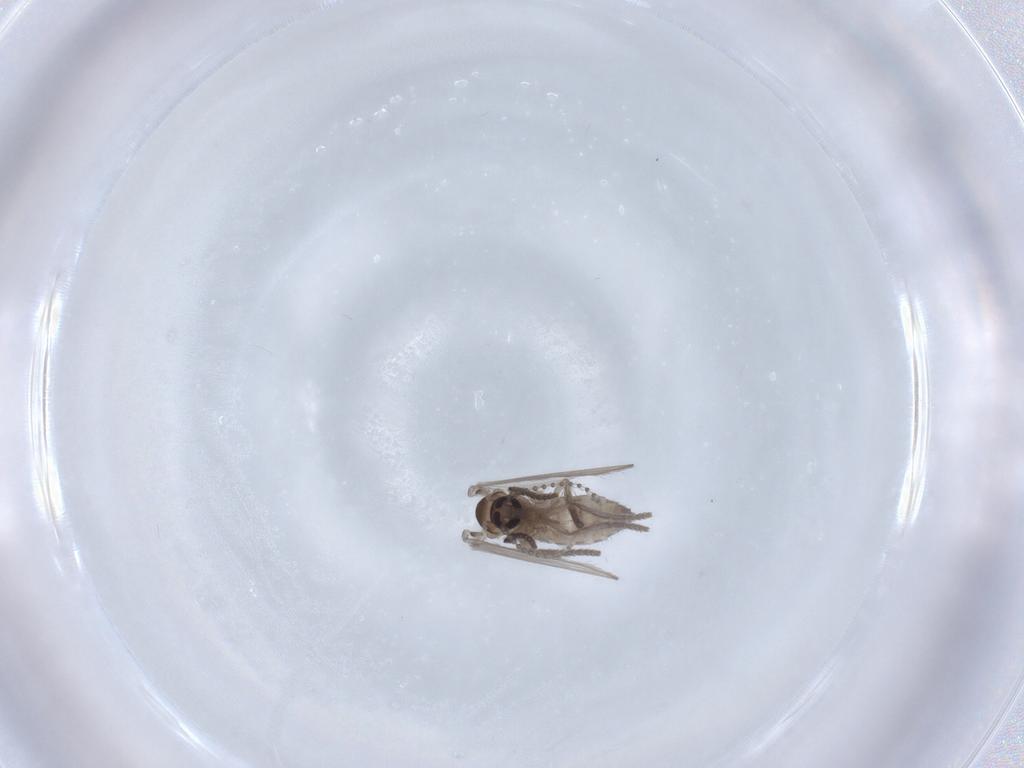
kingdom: Animalia
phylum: Arthropoda
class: Insecta
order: Diptera
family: Psychodidae
